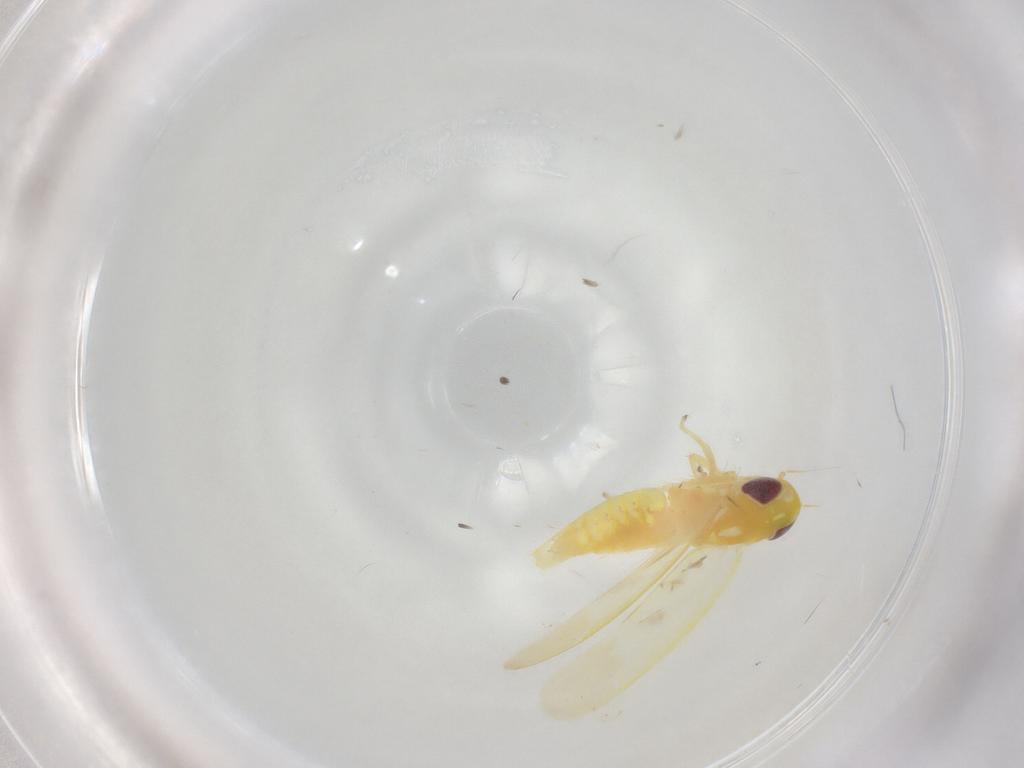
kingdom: Animalia
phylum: Arthropoda
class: Insecta
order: Hemiptera
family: Cicadellidae
